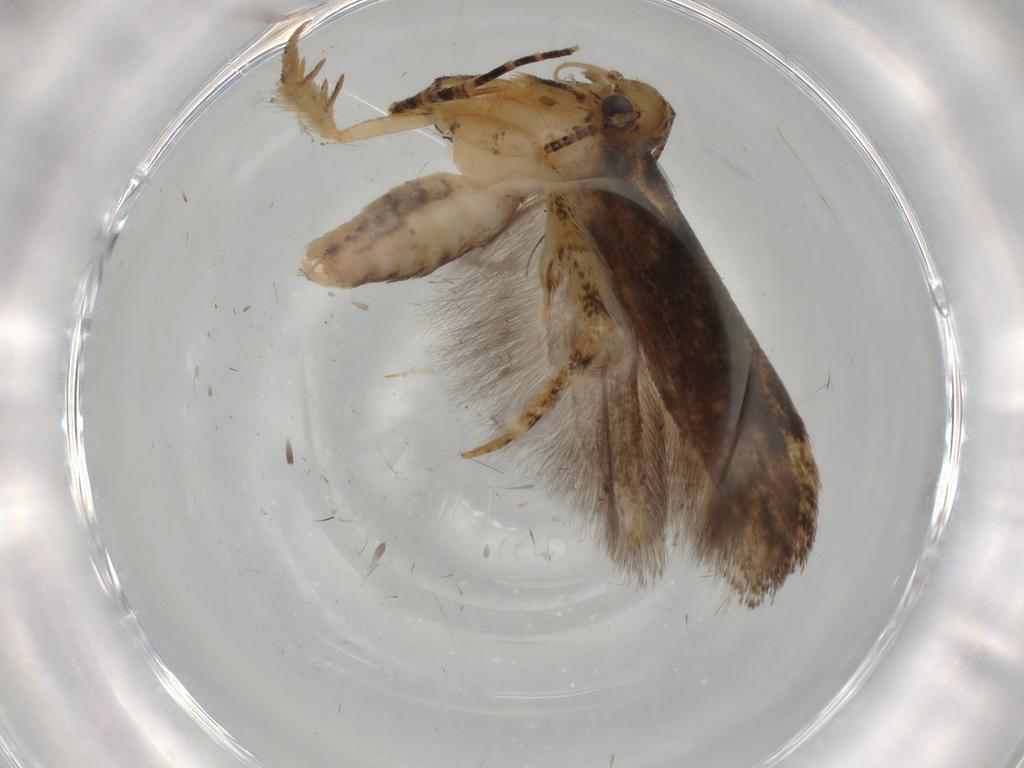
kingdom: Animalia
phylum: Arthropoda
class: Insecta
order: Lepidoptera
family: Gelechiidae
